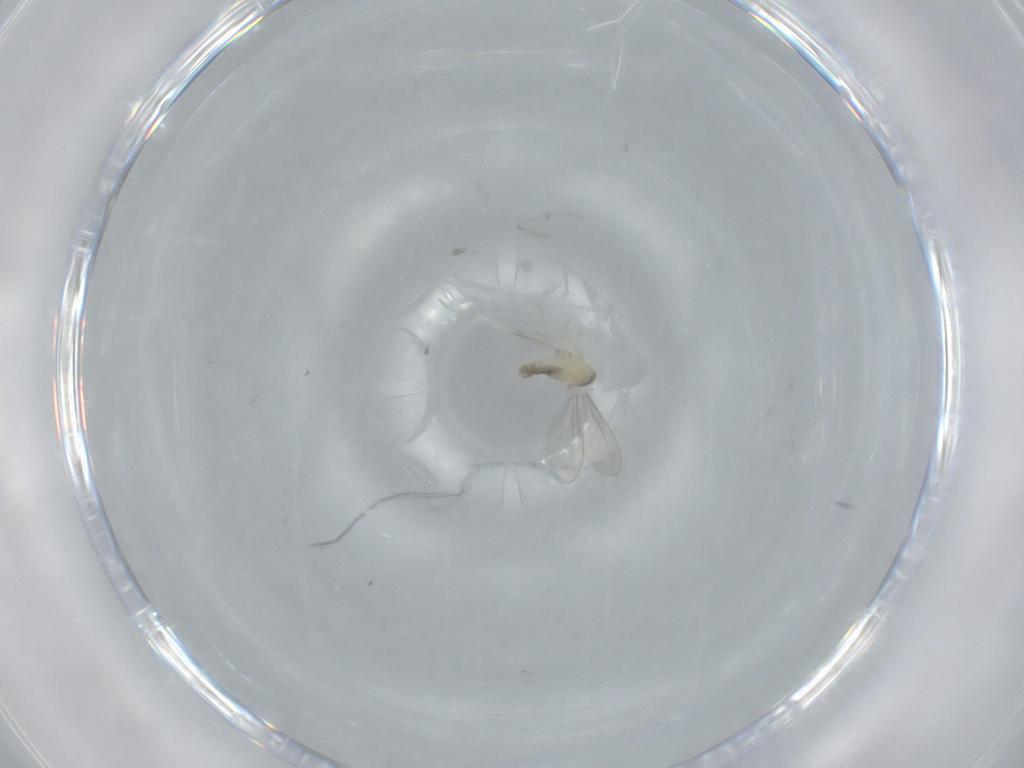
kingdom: Animalia
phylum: Arthropoda
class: Insecta
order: Diptera
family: Cecidomyiidae
